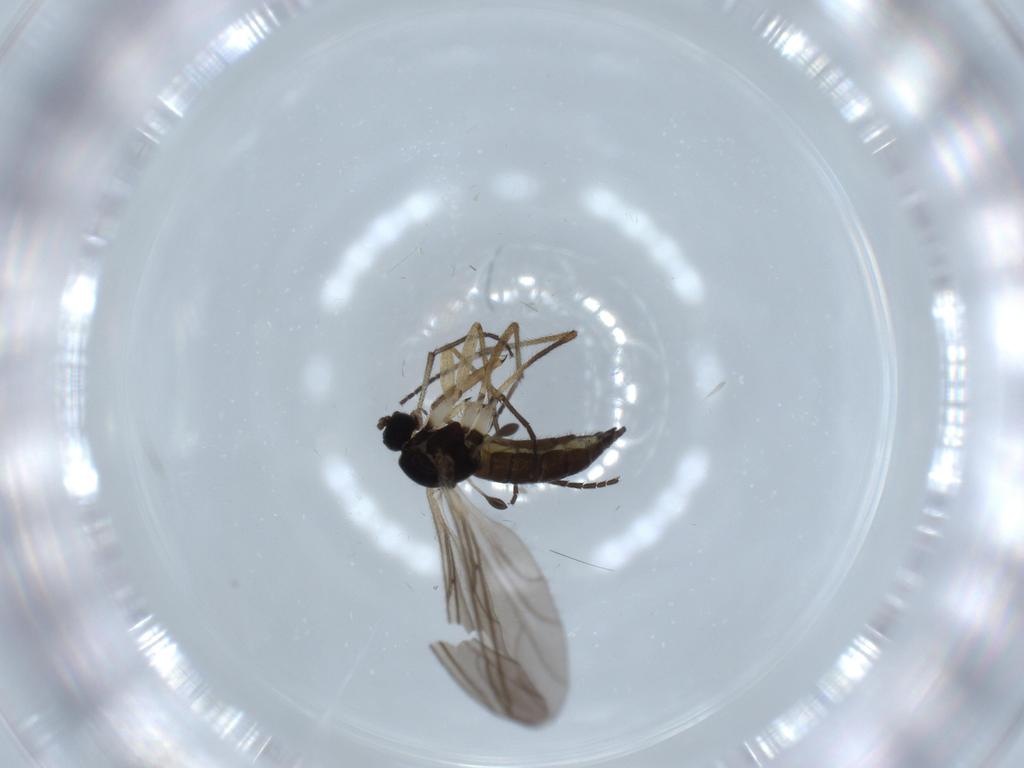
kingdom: Animalia
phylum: Arthropoda
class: Insecta
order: Diptera
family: Sciaridae
